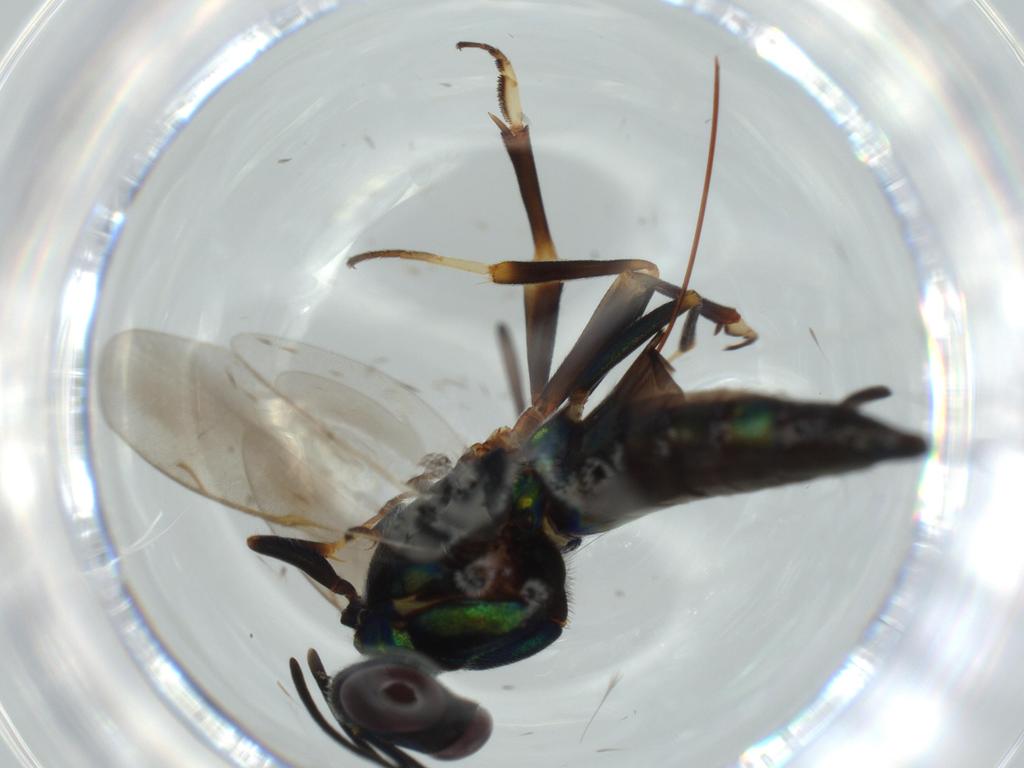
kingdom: Animalia
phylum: Arthropoda
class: Insecta
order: Hymenoptera
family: Eupelmidae
